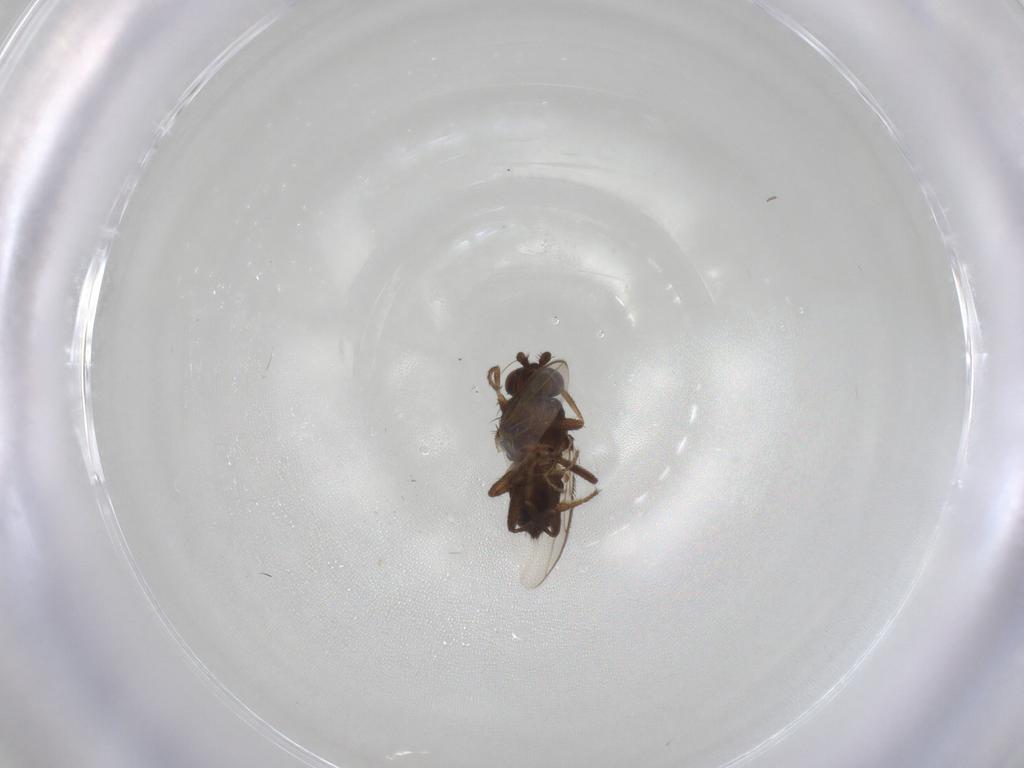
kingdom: Animalia
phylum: Arthropoda
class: Insecta
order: Diptera
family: Sphaeroceridae
